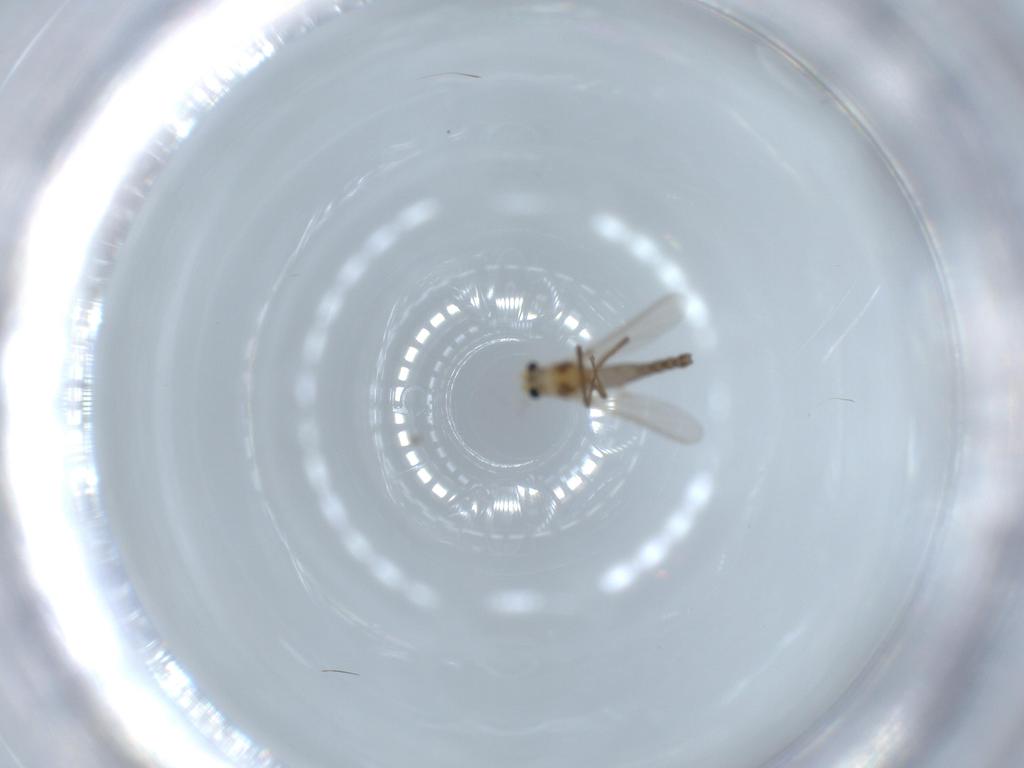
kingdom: Animalia
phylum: Arthropoda
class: Insecta
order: Diptera
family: Chironomidae
